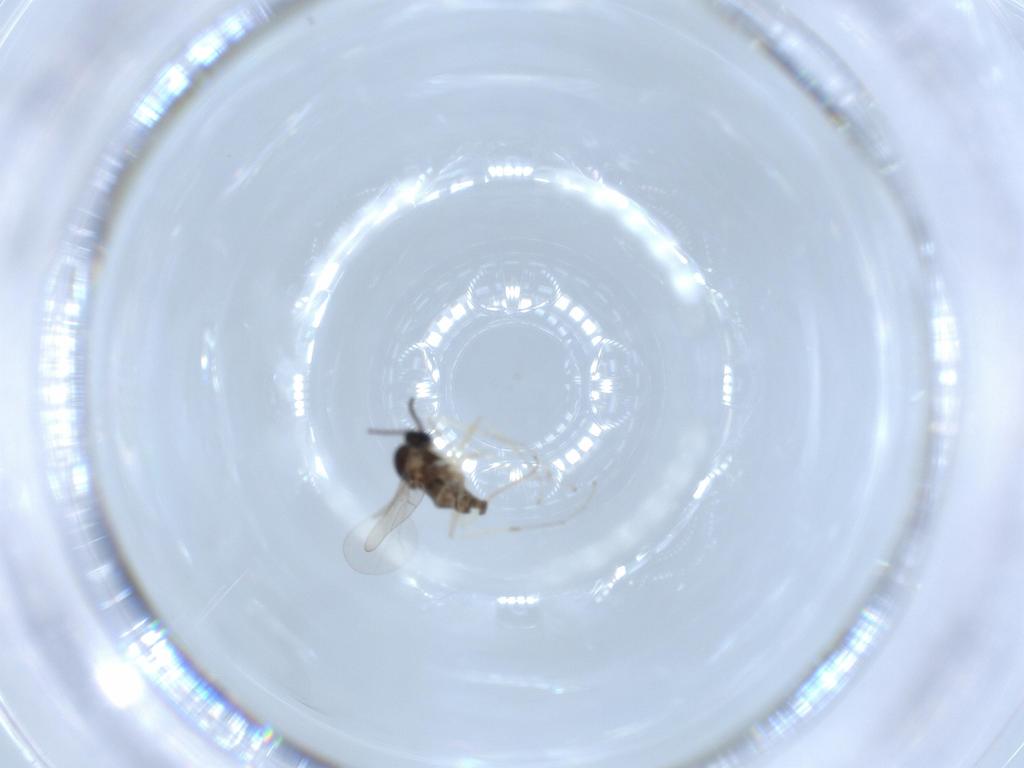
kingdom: Animalia
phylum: Arthropoda
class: Insecta
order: Diptera
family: Cecidomyiidae
